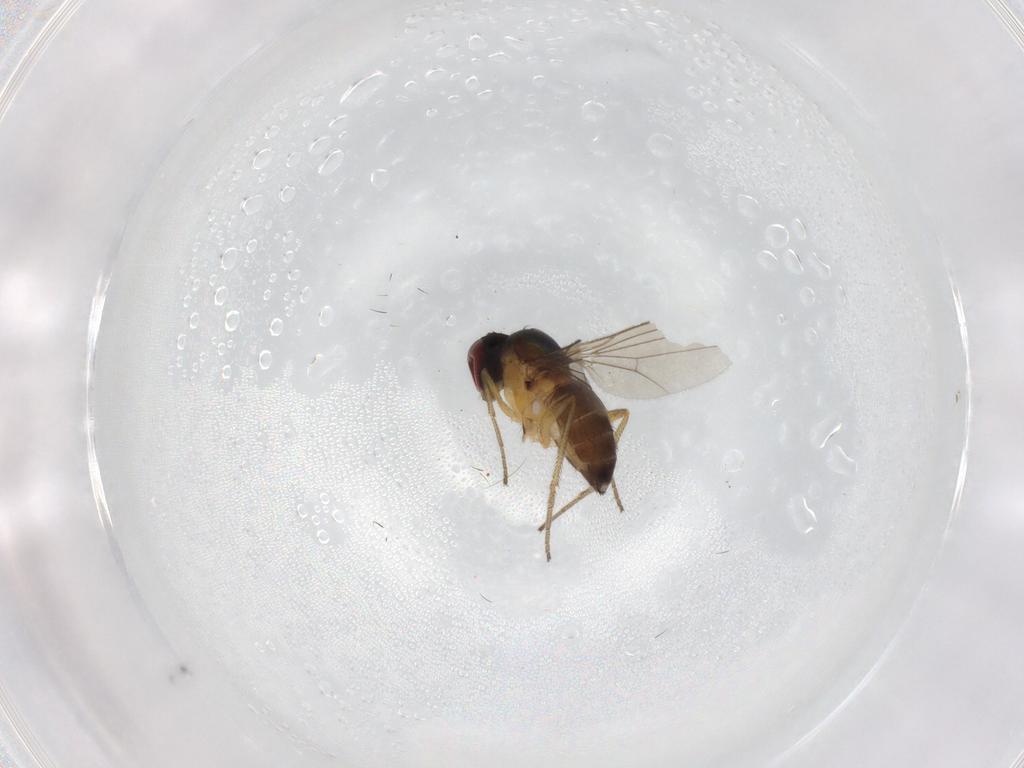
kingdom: Animalia
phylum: Arthropoda
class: Insecta
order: Diptera
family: Dolichopodidae
